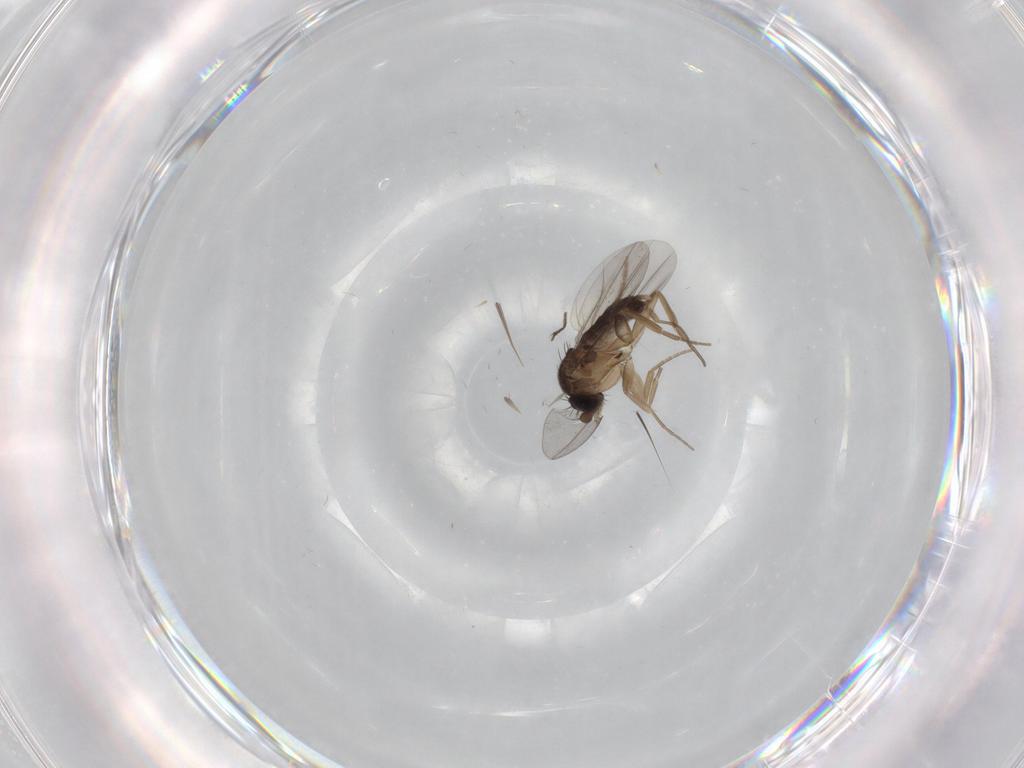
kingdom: Animalia
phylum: Arthropoda
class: Insecta
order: Diptera
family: Phoridae
